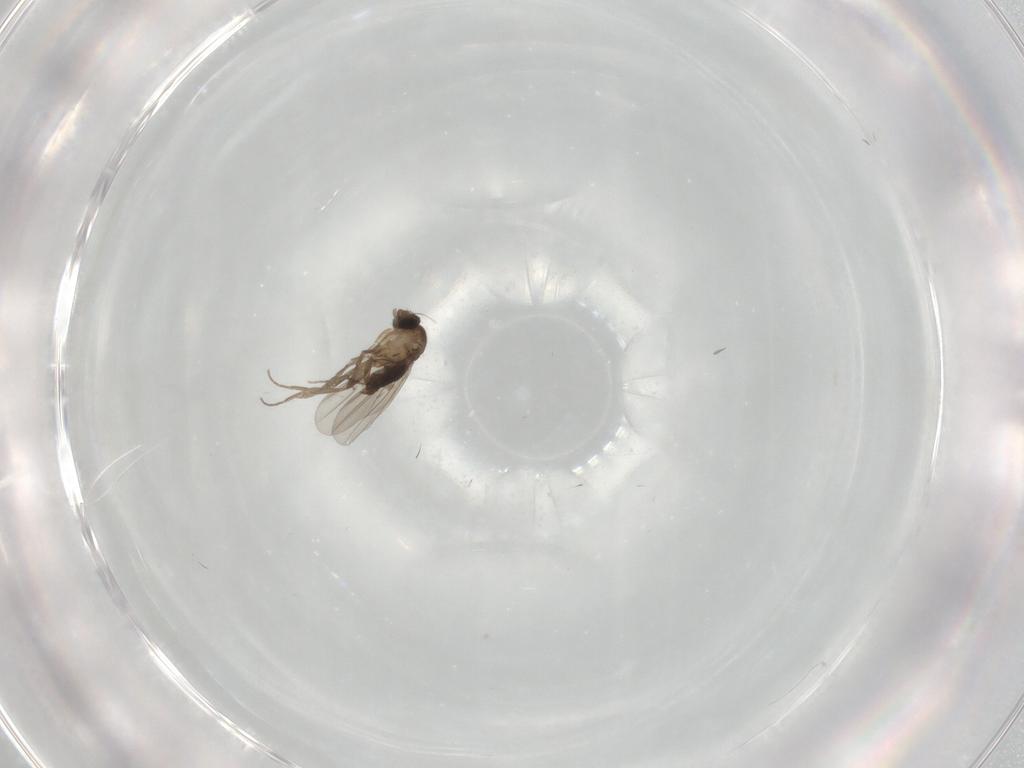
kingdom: Animalia
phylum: Arthropoda
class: Insecta
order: Diptera
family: Phoridae
